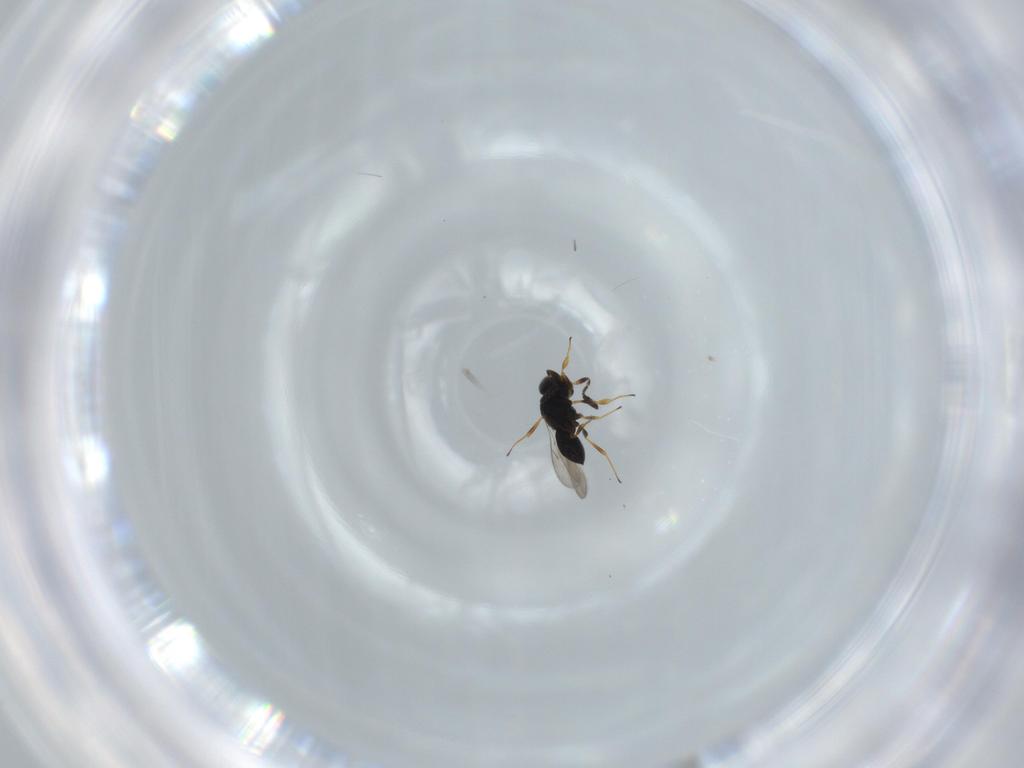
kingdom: Animalia
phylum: Arthropoda
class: Insecta
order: Hymenoptera
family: Scelionidae
